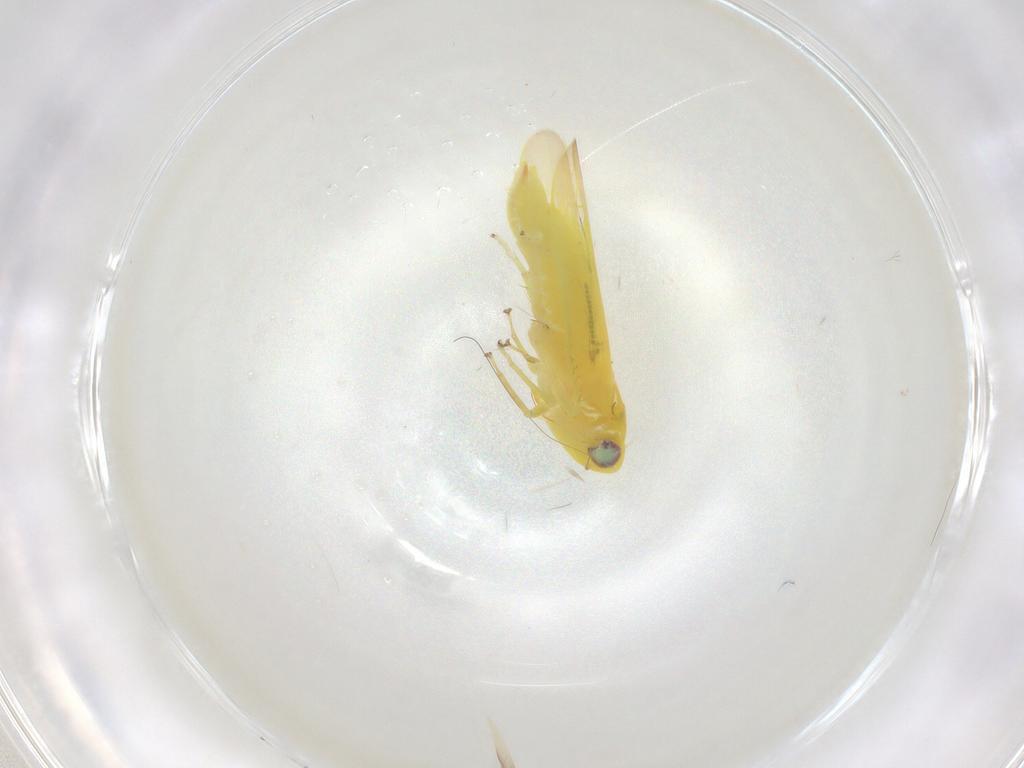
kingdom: Animalia
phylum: Arthropoda
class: Insecta
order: Hemiptera
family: Cicadellidae
